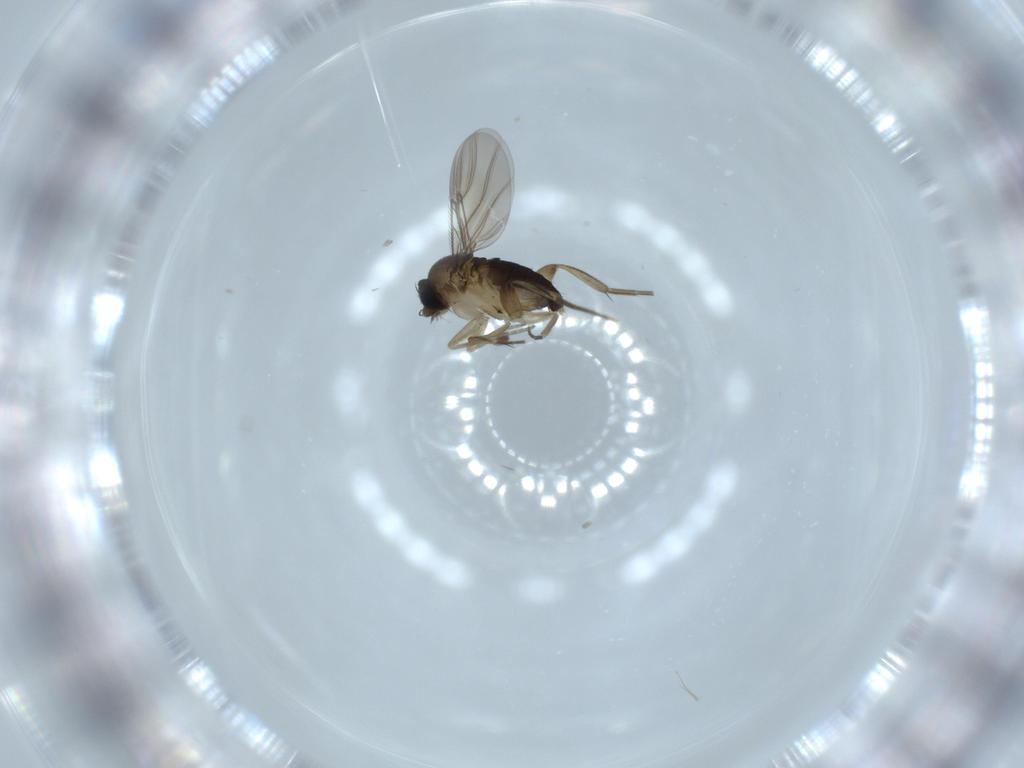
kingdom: Animalia
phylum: Arthropoda
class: Insecta
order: Diptera
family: Phoridae
